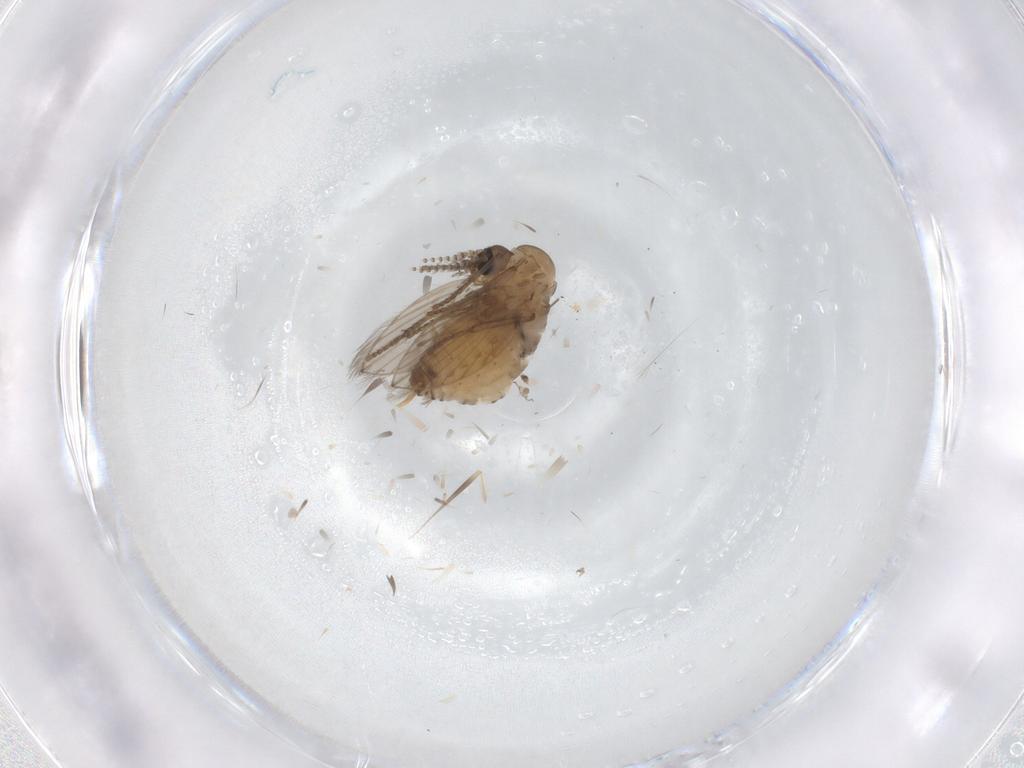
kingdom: Animalia
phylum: Arthropoda
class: Insecta
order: Diptera
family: Psychodidae
